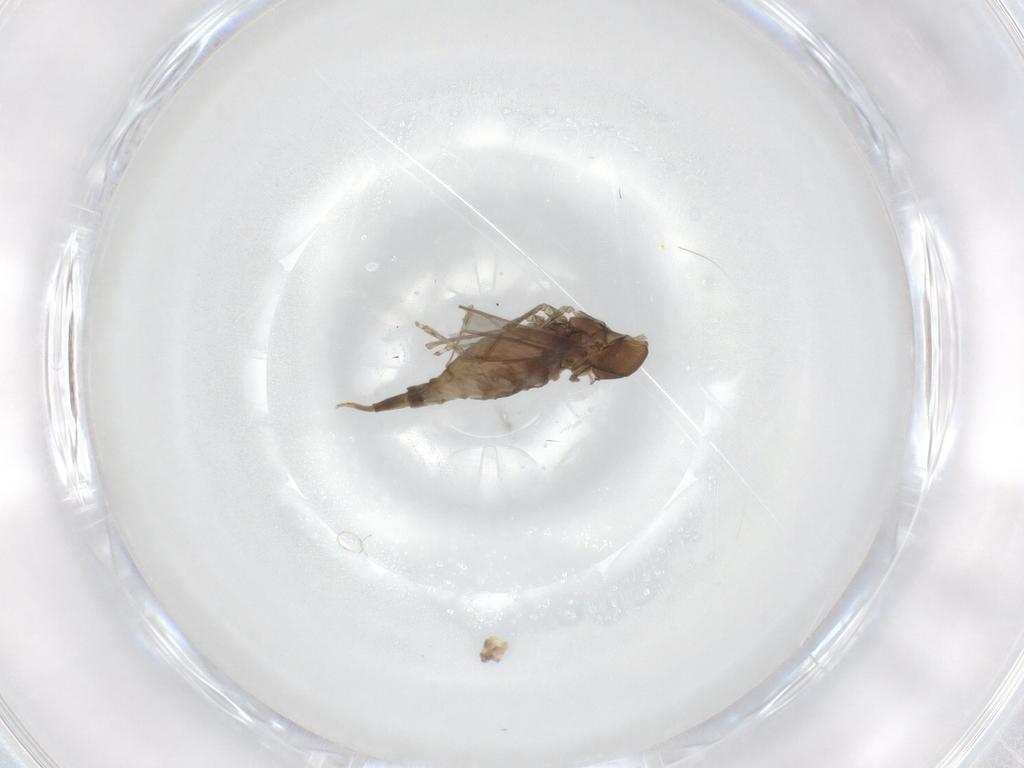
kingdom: Animalia
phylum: Arthropoda
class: Insecta
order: Diptera
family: Cecidomyiidae
